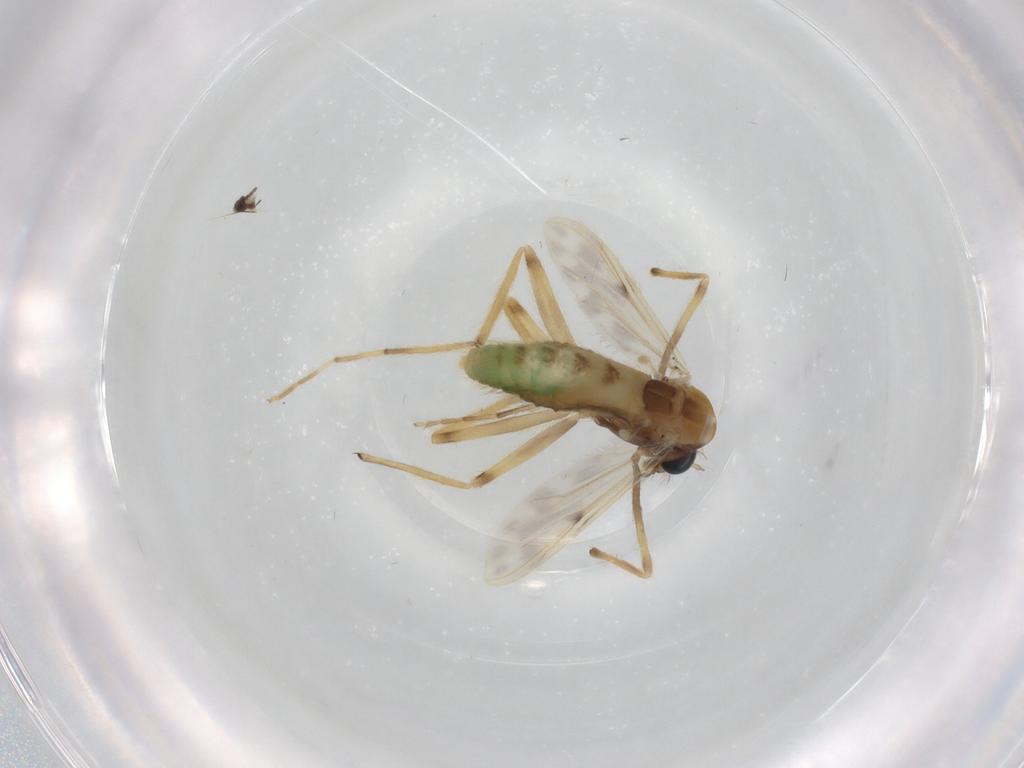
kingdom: Animalia
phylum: Arthropoda
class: Insecta
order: Diptera
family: Chironomidae
